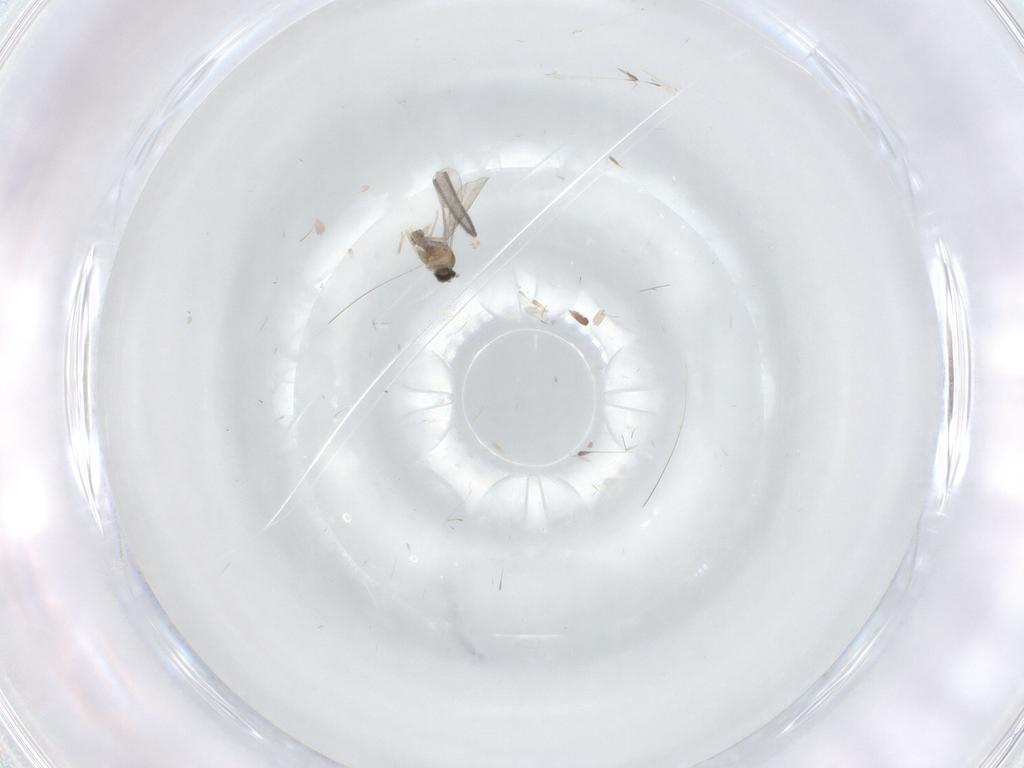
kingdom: Animalia
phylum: Arthropoda
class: Insecta
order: Diptera
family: Cecidomyiidae
